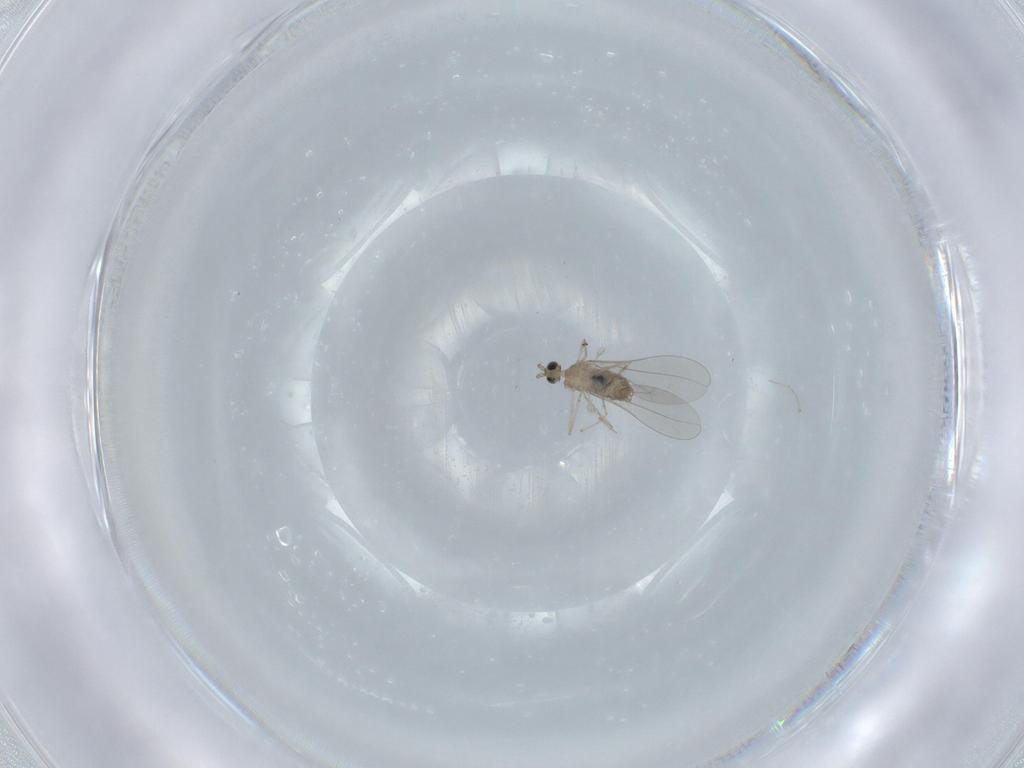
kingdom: Animalia
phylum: Arthropoda
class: Insecta
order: Diptera
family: Cecidomyiidae
